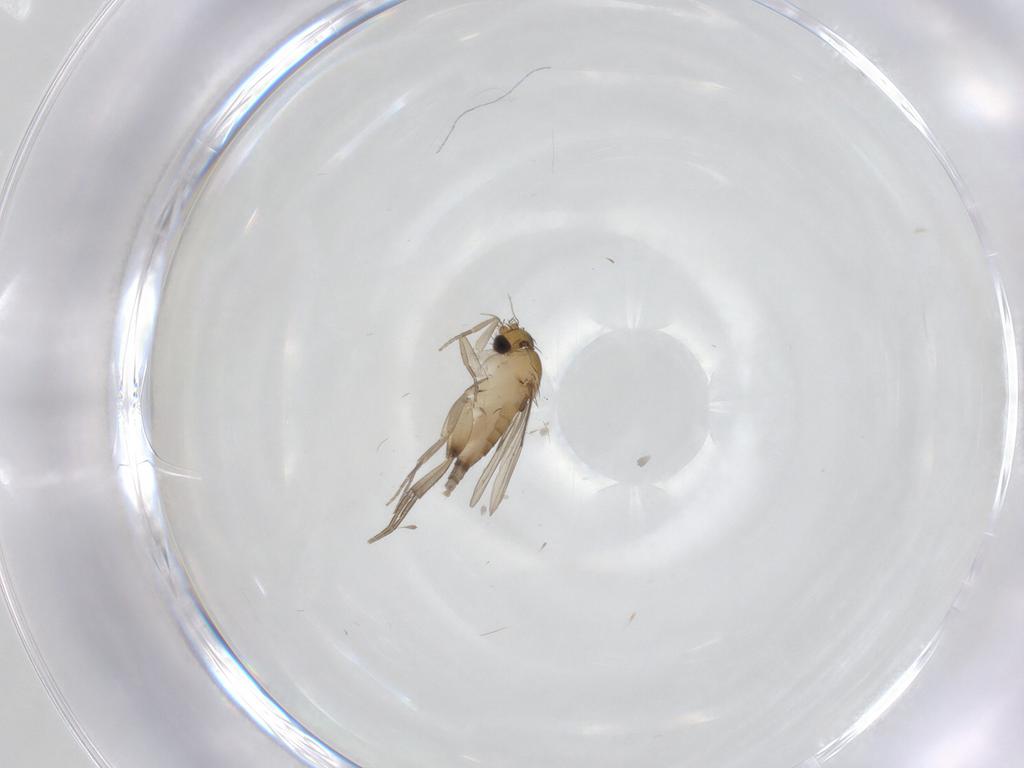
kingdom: Animalia
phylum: Arthropoda
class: Insecta
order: Diptera
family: Phoridae
